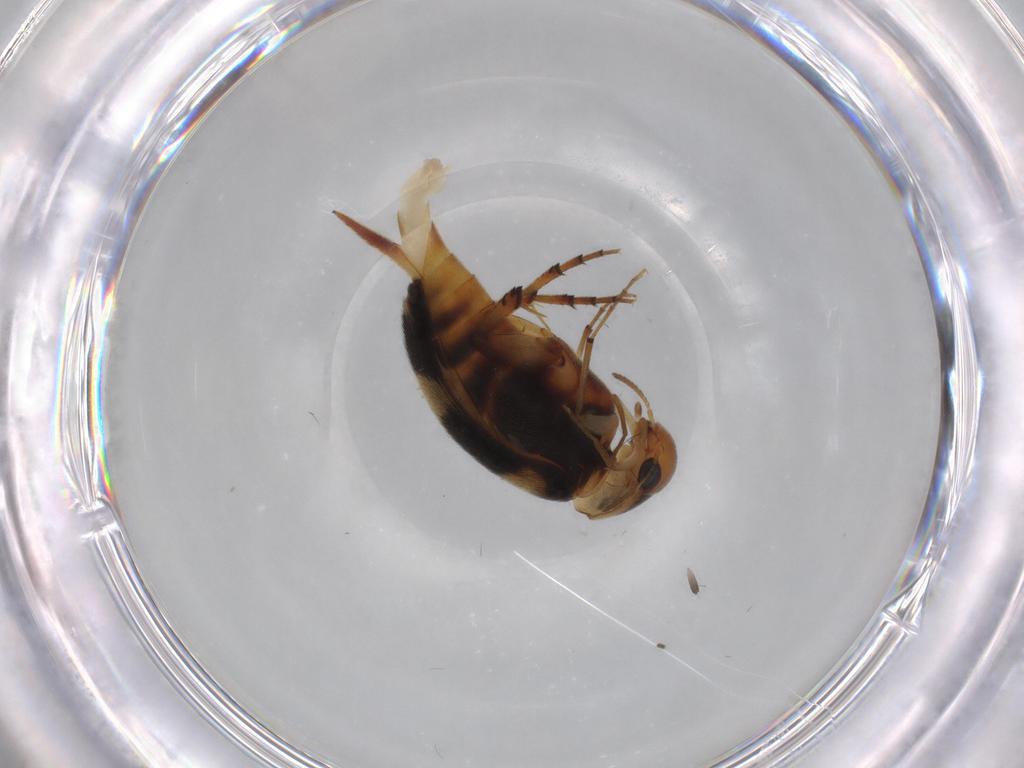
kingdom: Animalia
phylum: Arthropoda
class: Insecta
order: Coleoptera
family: Mordellidae
